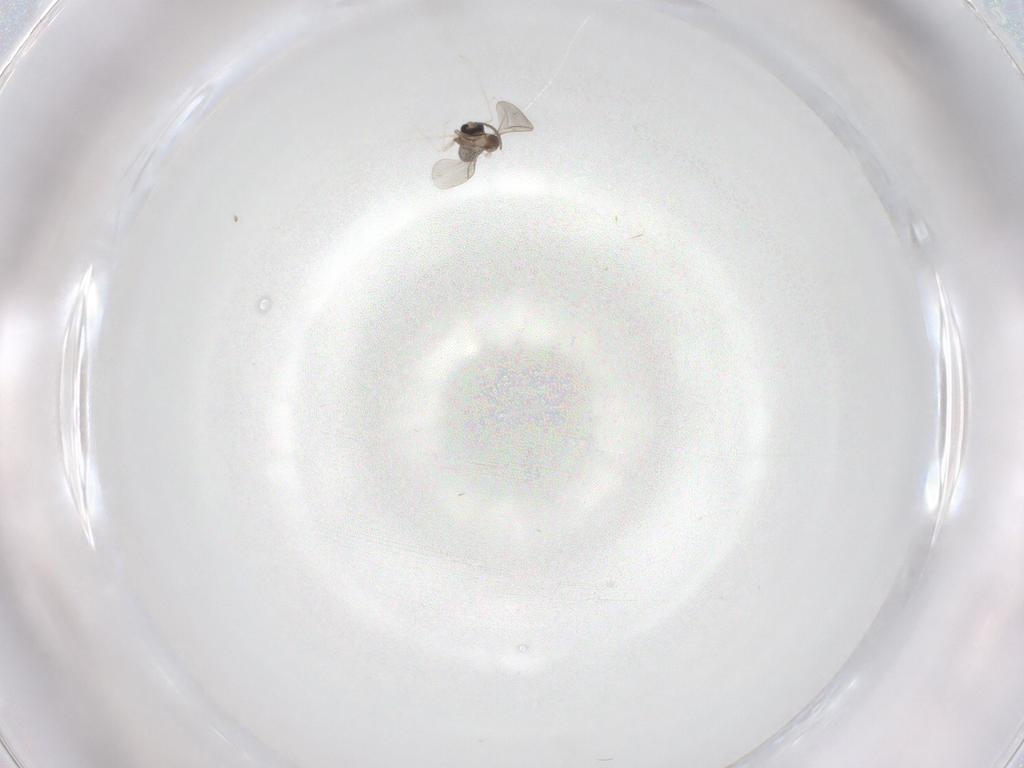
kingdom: Animalia
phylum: Arthropoda
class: Insecta
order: Diptera
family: Cecidomyiidae
